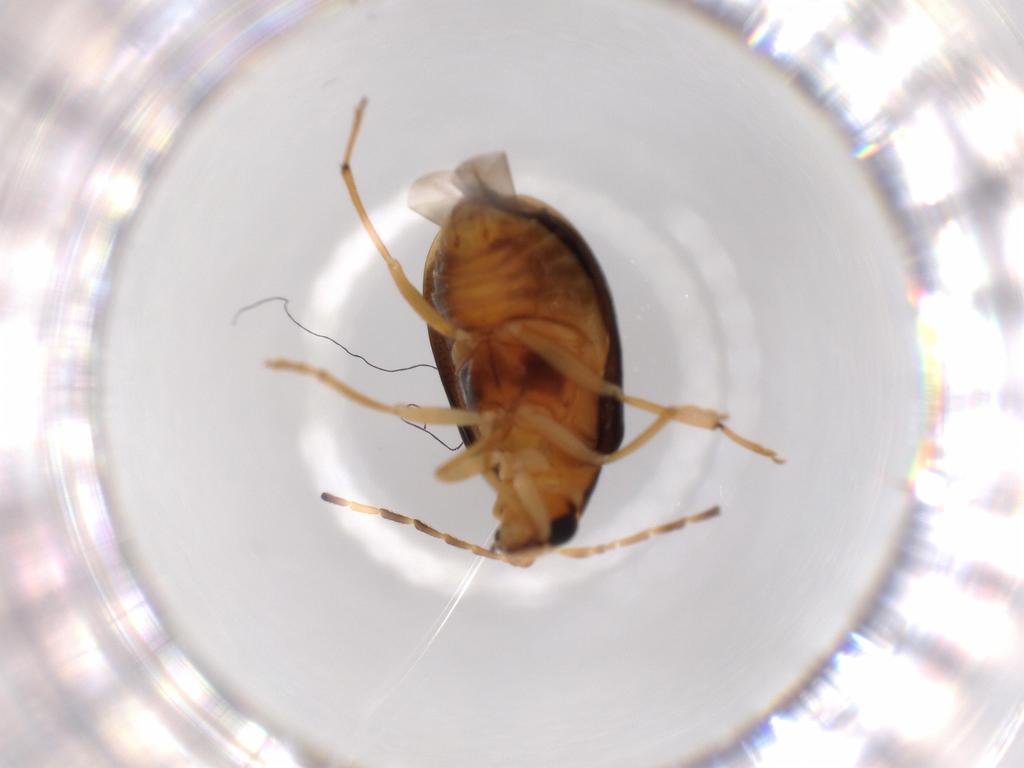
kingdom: Animalia
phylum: Arthropoda
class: Insecta
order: Coleoptera
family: Chrysomelidae
